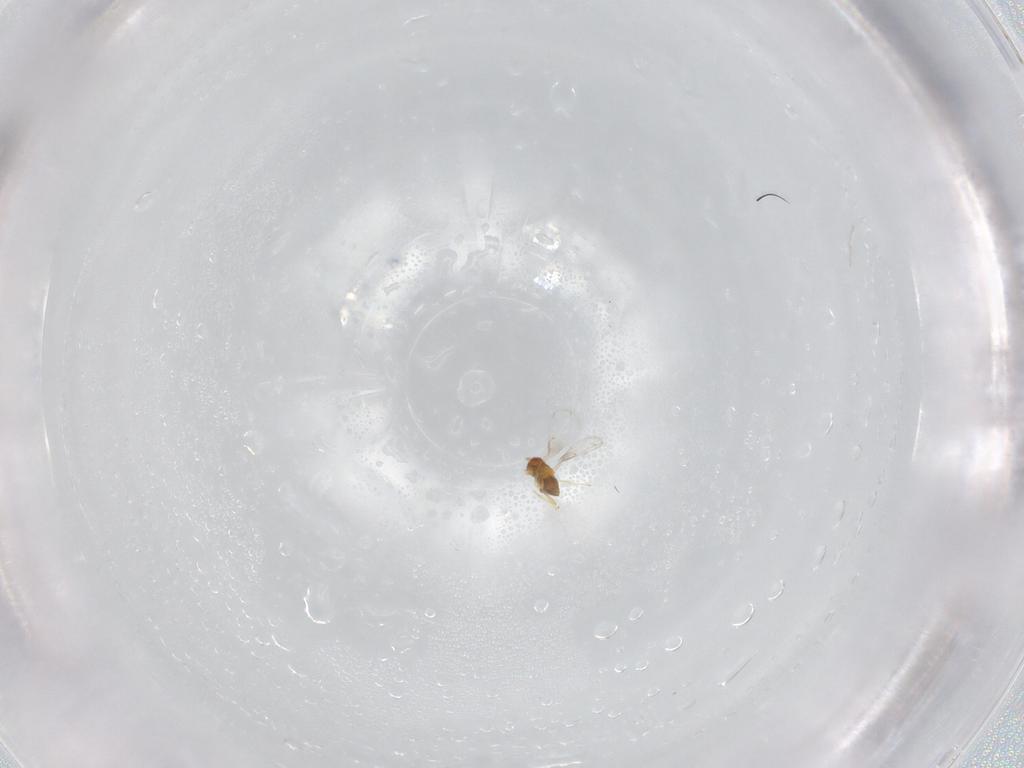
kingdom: Animalia
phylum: Arthropoda
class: Insecta
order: Hymenoptera
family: Trichogrammatidae
